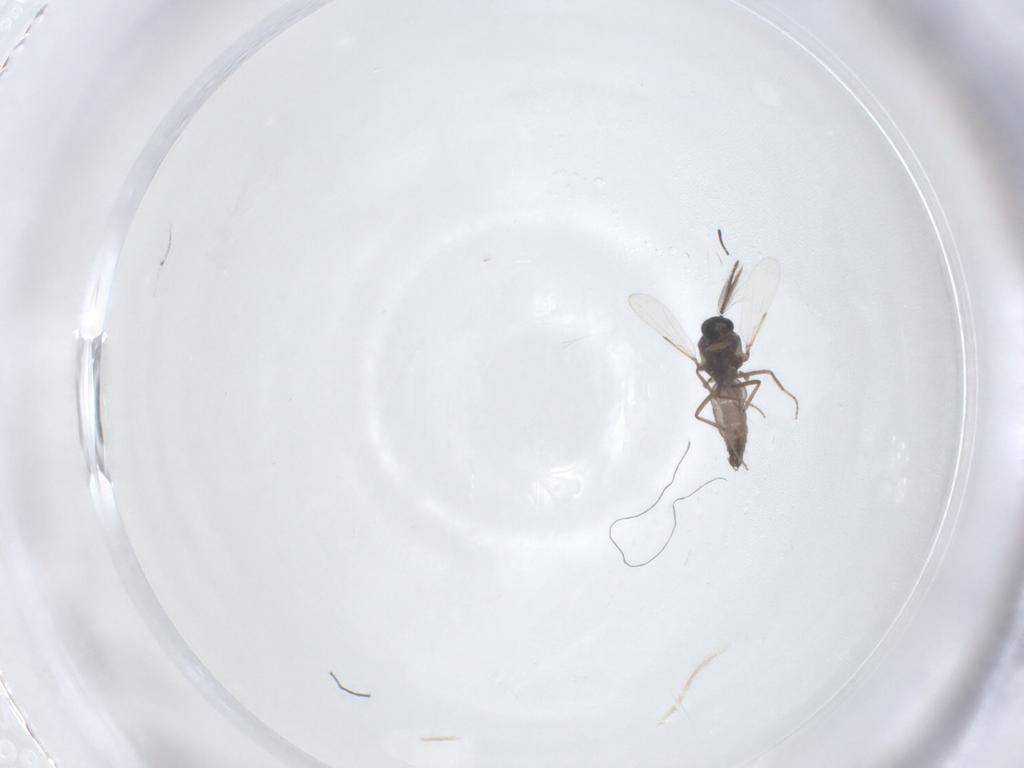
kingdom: Animalia
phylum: Arthropoda
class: Insecta
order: Diptera
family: Ceratopogonidae
